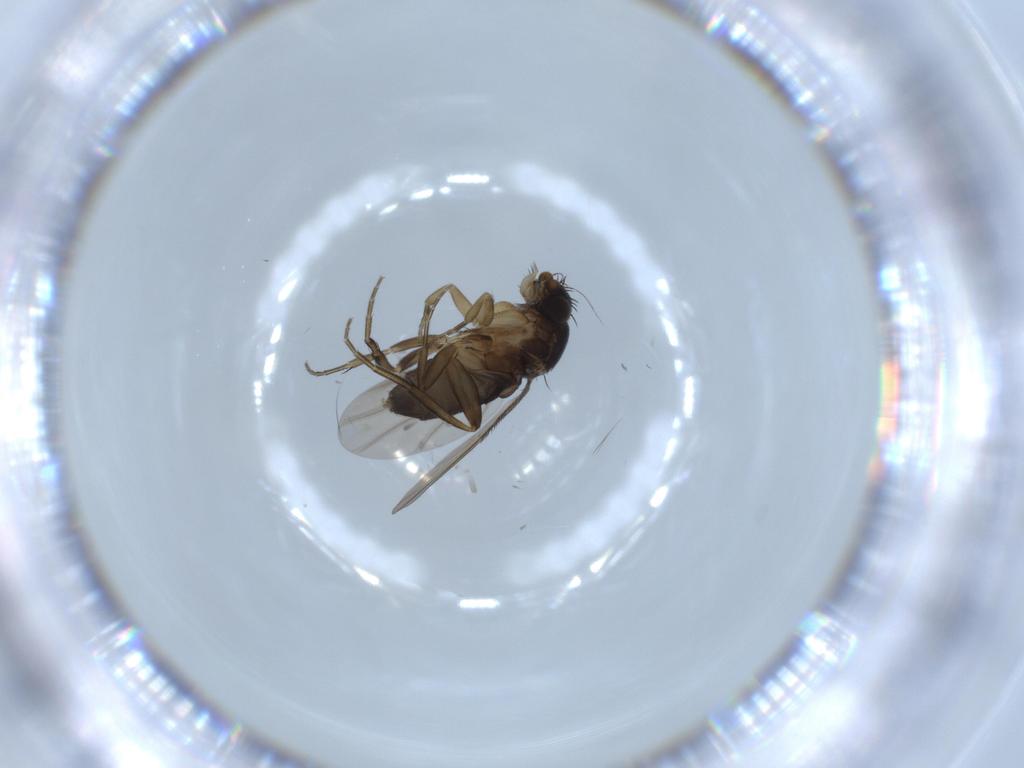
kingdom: Animalia
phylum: Arthropoda
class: Insecta
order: Diptera
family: Phoridae
